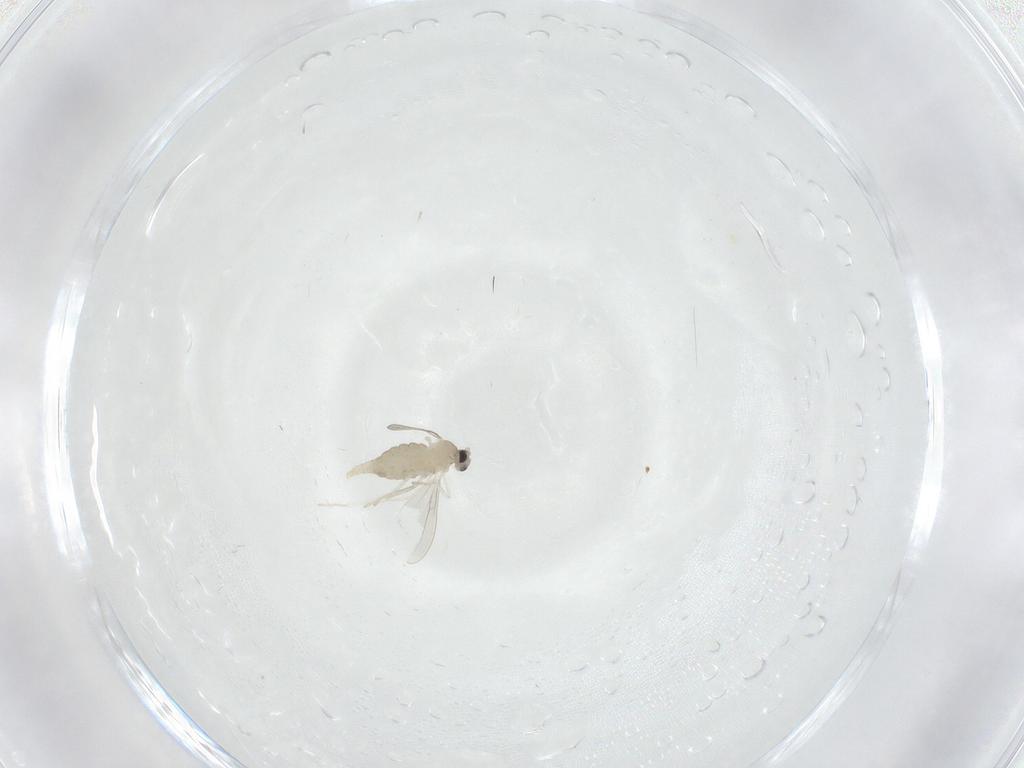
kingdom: Animalia
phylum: Arthropoda
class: Insecta
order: Diptera
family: Cecidomyiidae
